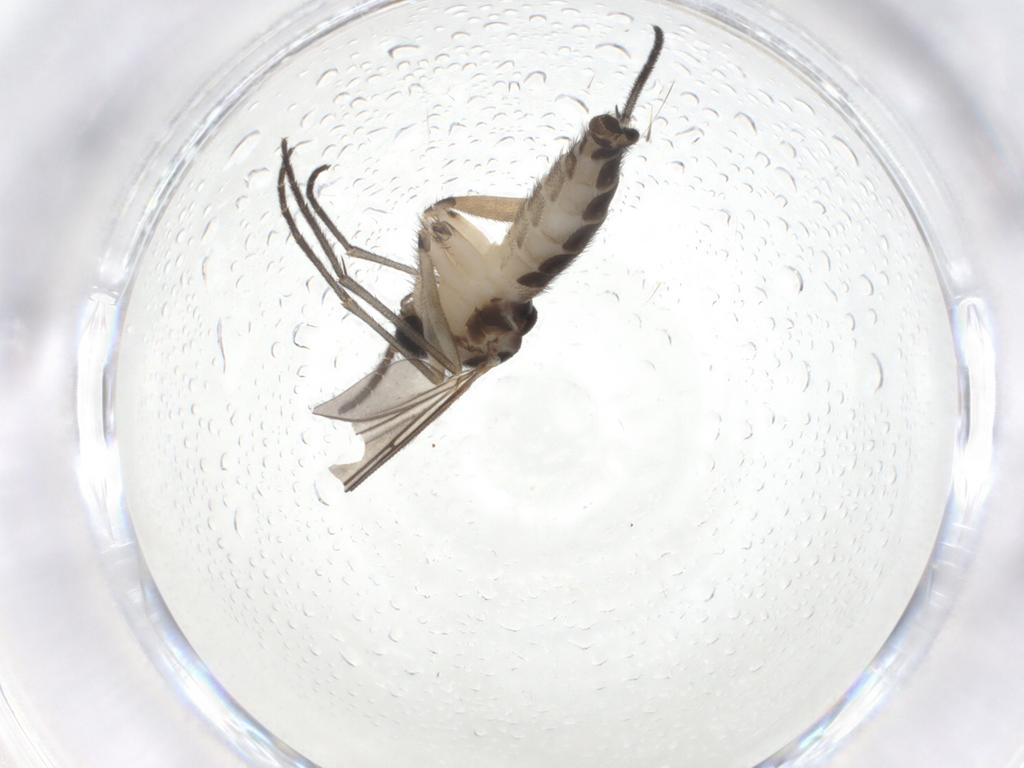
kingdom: Animalia
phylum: Arthropoda
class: Insecta
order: Diptera
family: Sciaridae
